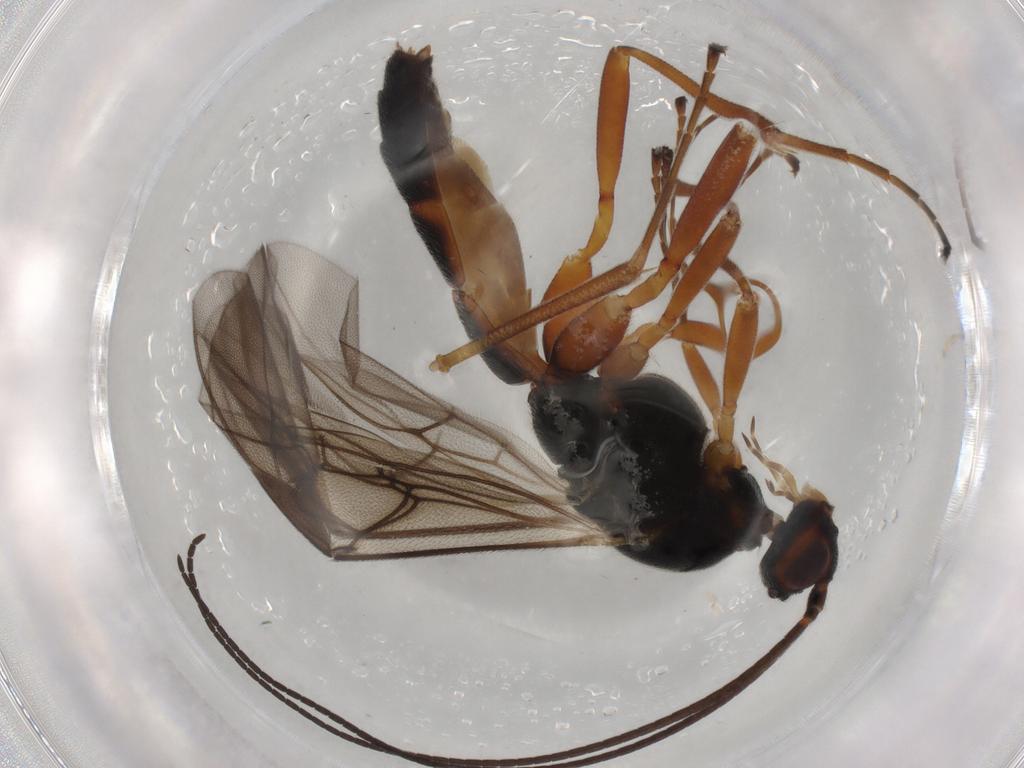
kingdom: Animalia
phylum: Arthropoda
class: Insecta
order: Hymenoptera
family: Braconidae
